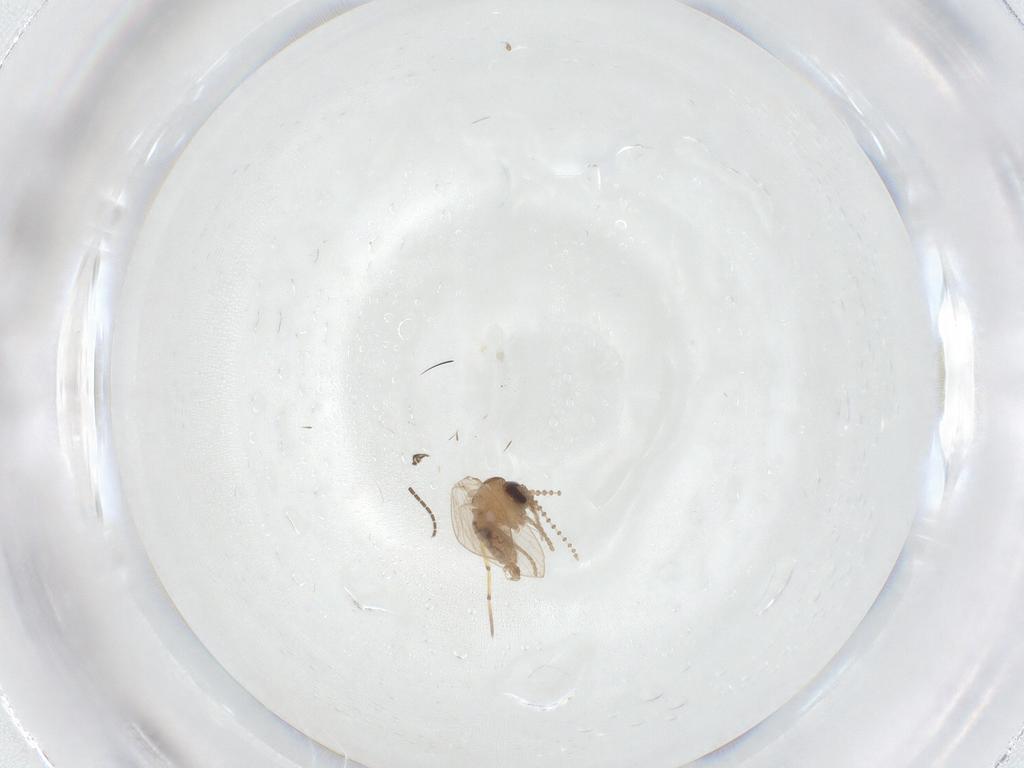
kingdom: Animalia
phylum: Arthropoda
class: Insecta
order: Diptera
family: Psychodidae
